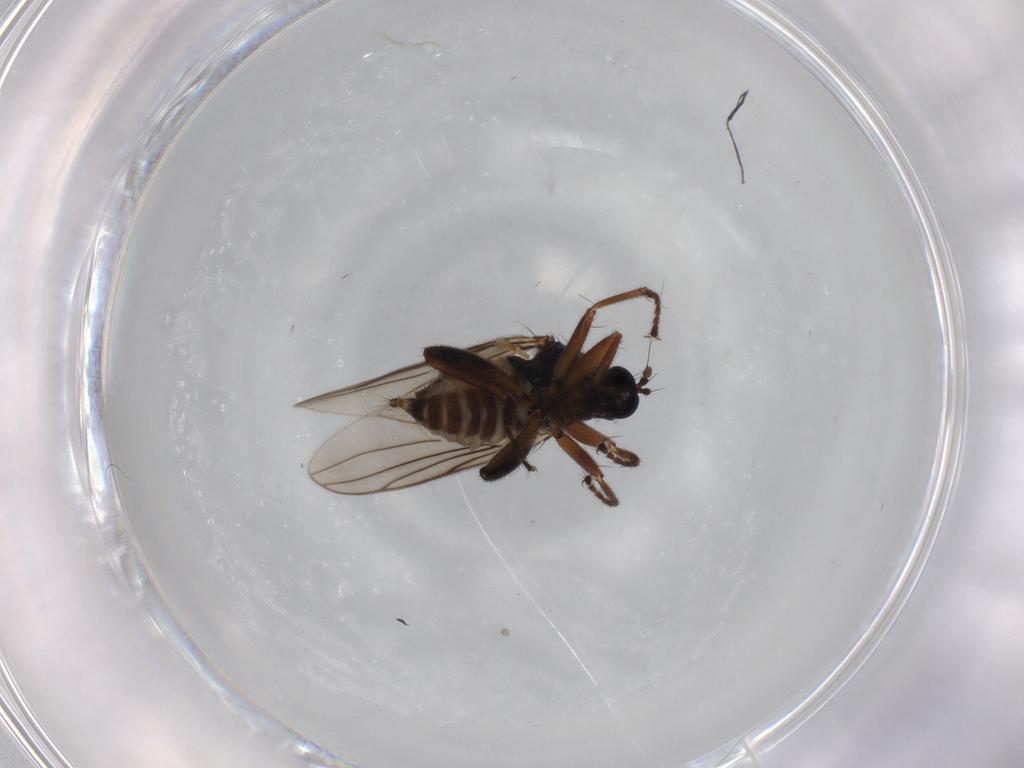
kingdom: Animalia
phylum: Arthropoda
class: Insecta
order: Diptera
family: Hybotidae
